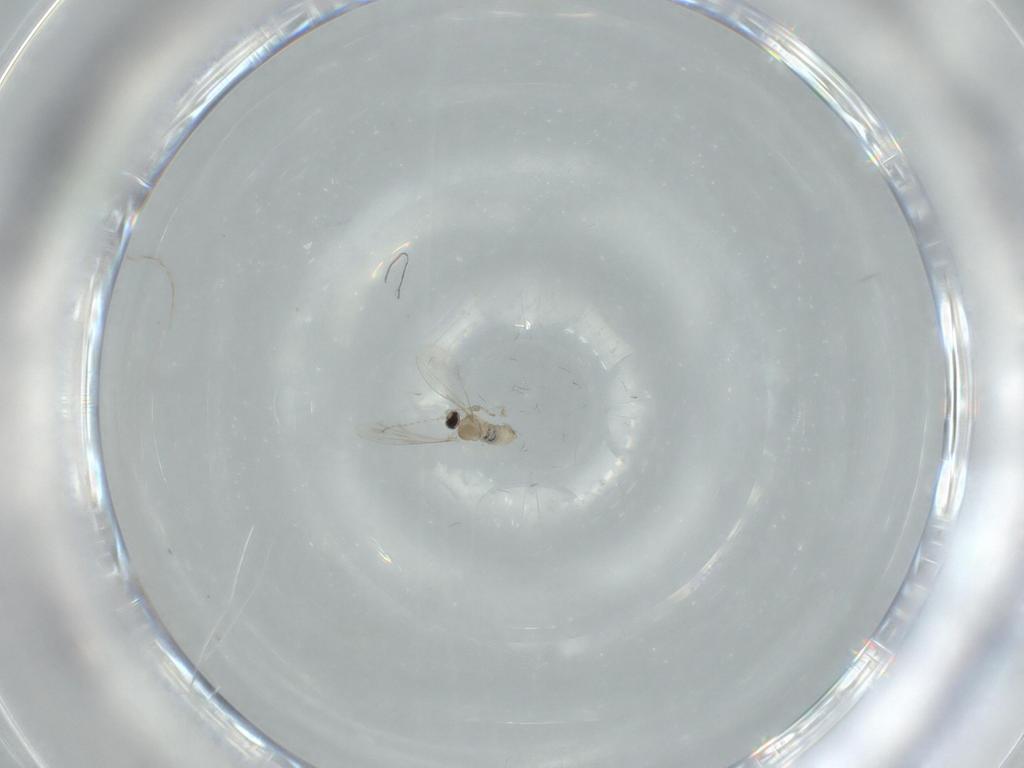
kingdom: Animalia
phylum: Arthropoda
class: Insecta
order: Diptera
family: Cecidomyiidae
